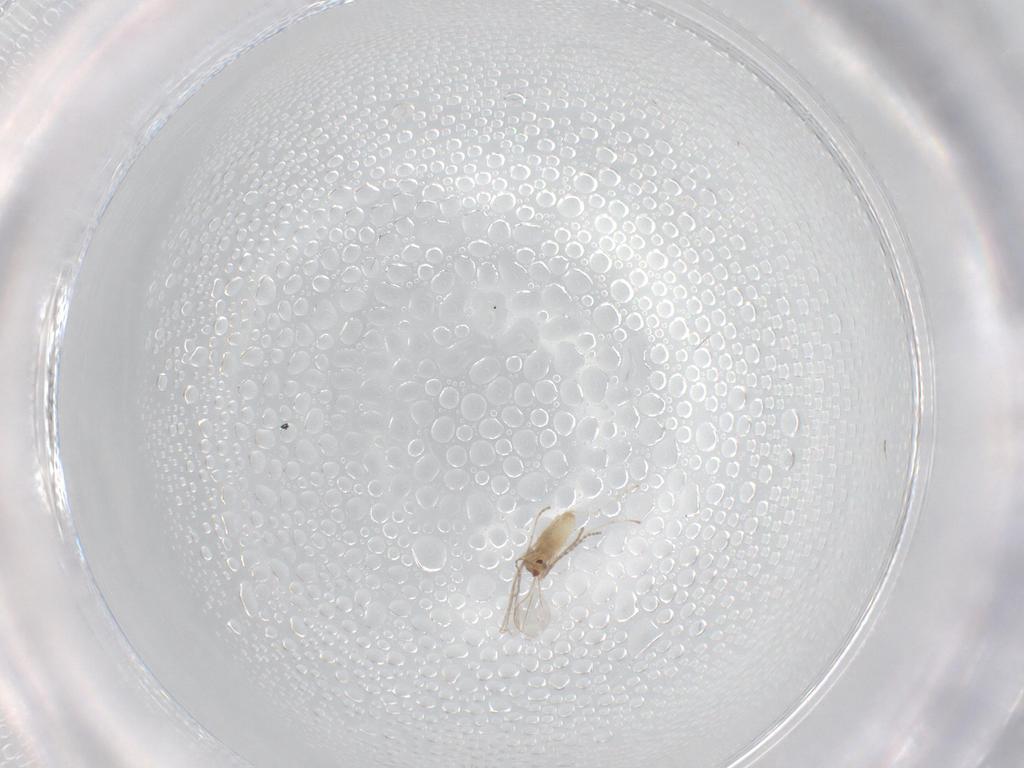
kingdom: Animalia
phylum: Arthropoda
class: Insecta
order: Diptera
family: Cecidomyiidae
